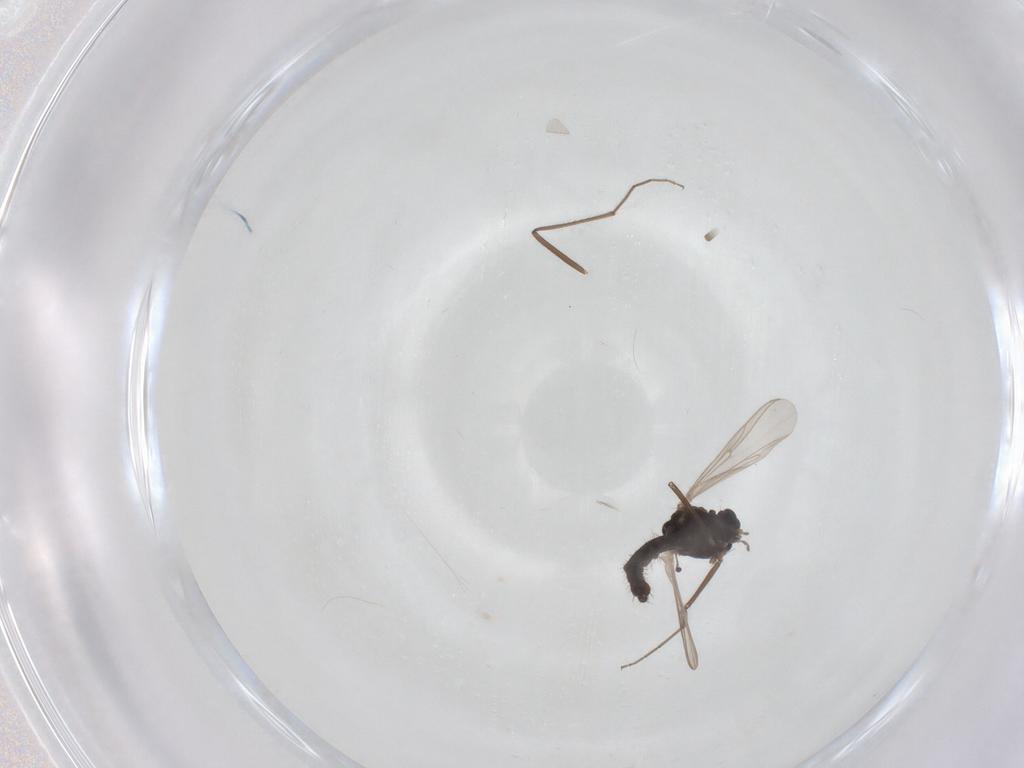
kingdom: Animalia
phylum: Arthropoda
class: Insecta
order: Diptera
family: Chironomidae
